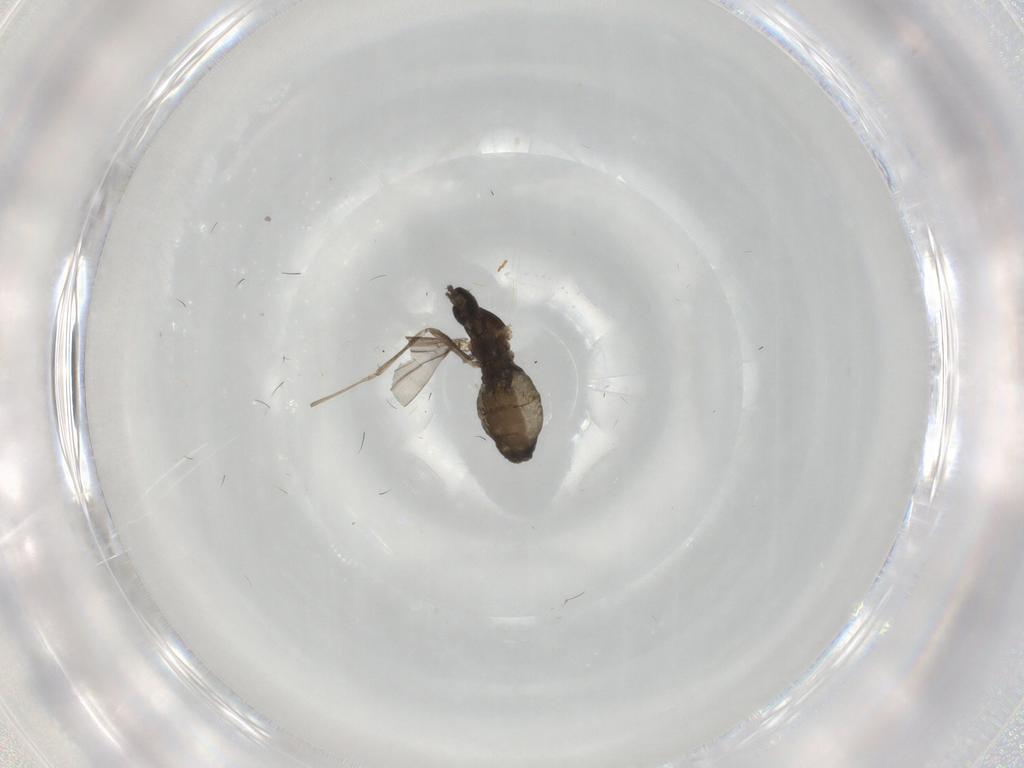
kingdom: Animalia
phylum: Arthropoda
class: Insecta
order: Diptera
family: Cecidomyiidae
